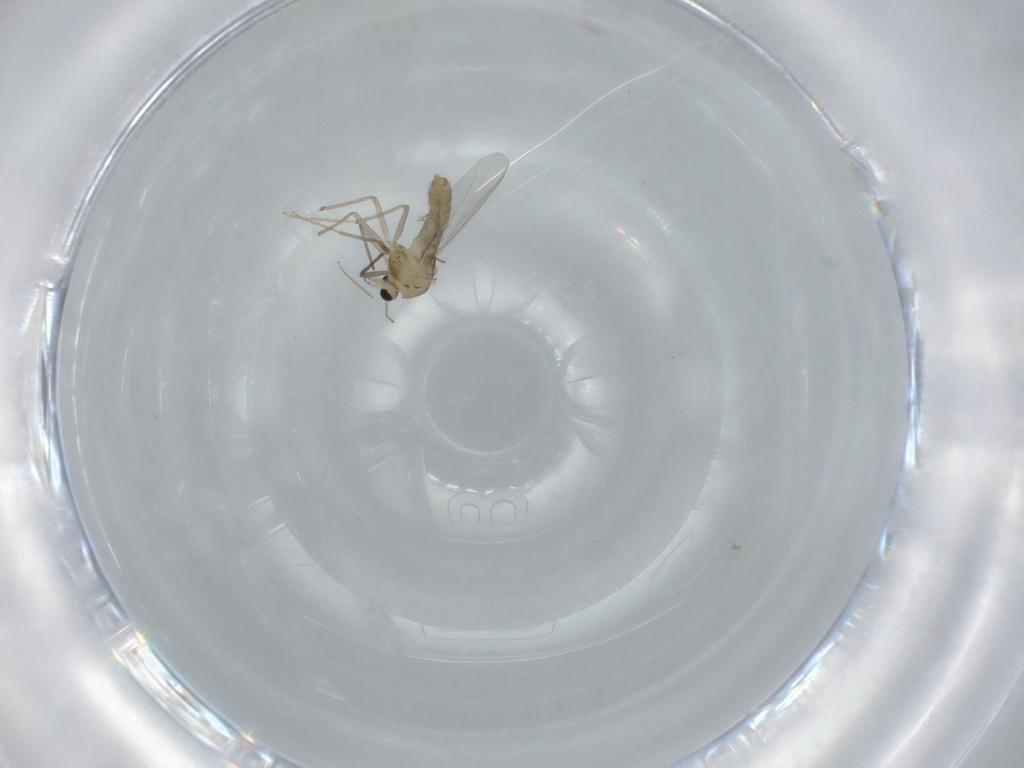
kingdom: Animalia
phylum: Arthropoda
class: Insecta
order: Diptera
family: Chironomidae
